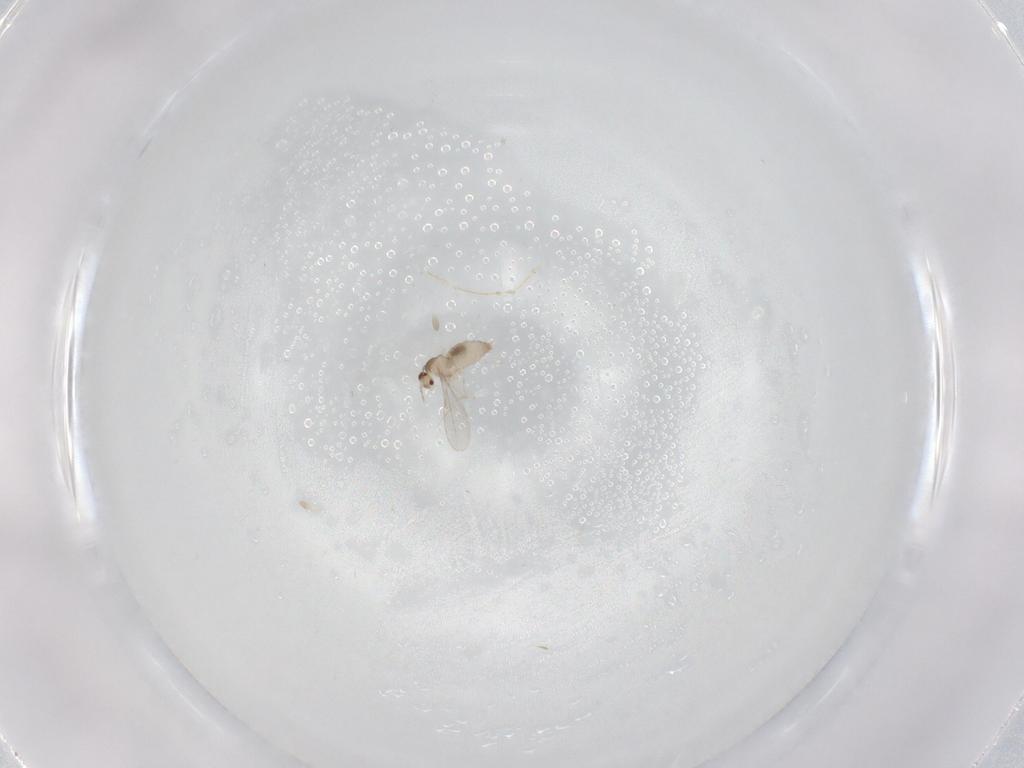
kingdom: Animalia
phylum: Arthropoda
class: Insecta
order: Diptera
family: Cecidomyiidae
